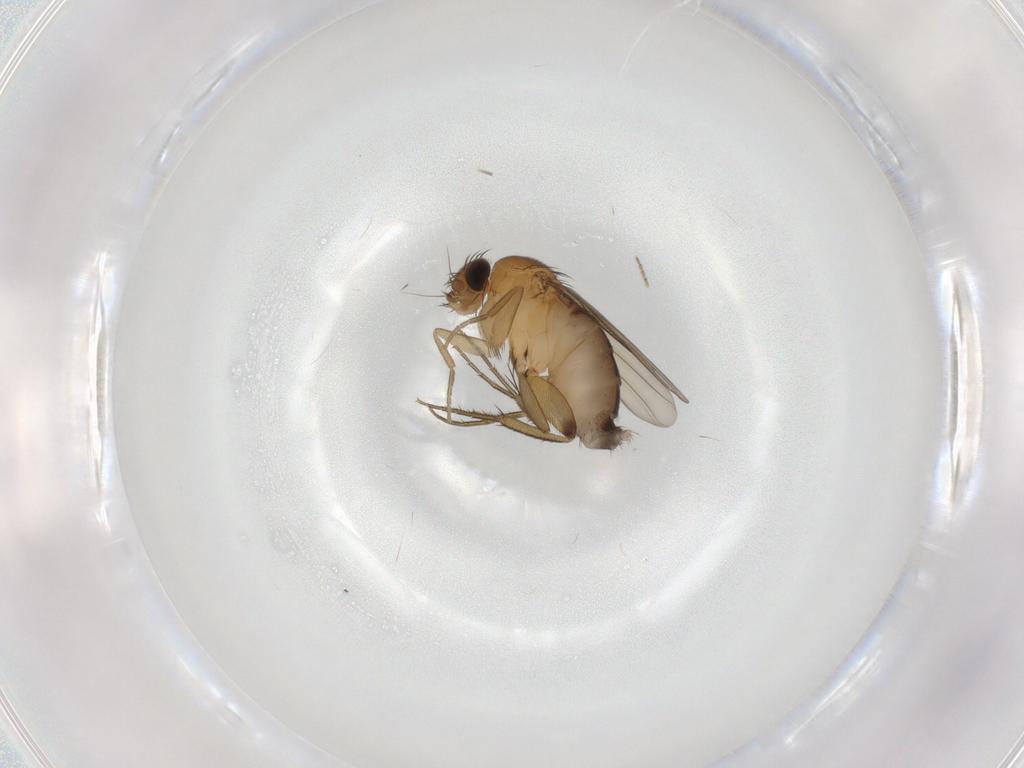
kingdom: Animalia
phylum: Arthropoda
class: Insecta
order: Diptera
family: Phoridae
